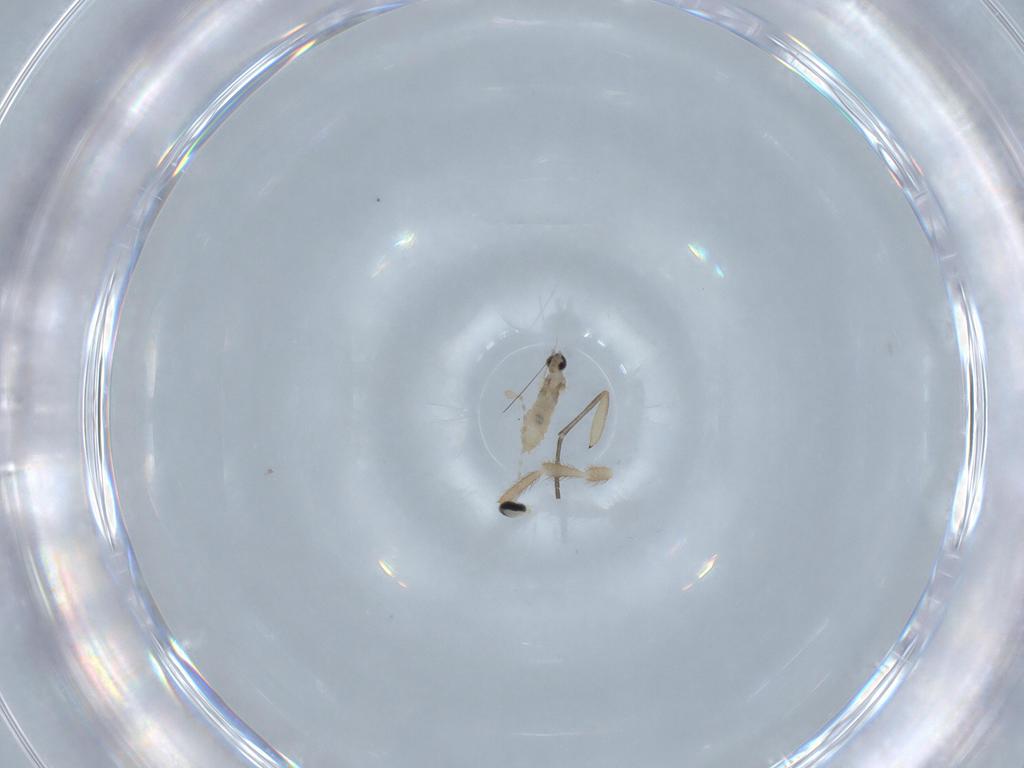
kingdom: Animalia
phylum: Arthropoda
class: Insecta
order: Diptera
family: Cecidomyiidae
